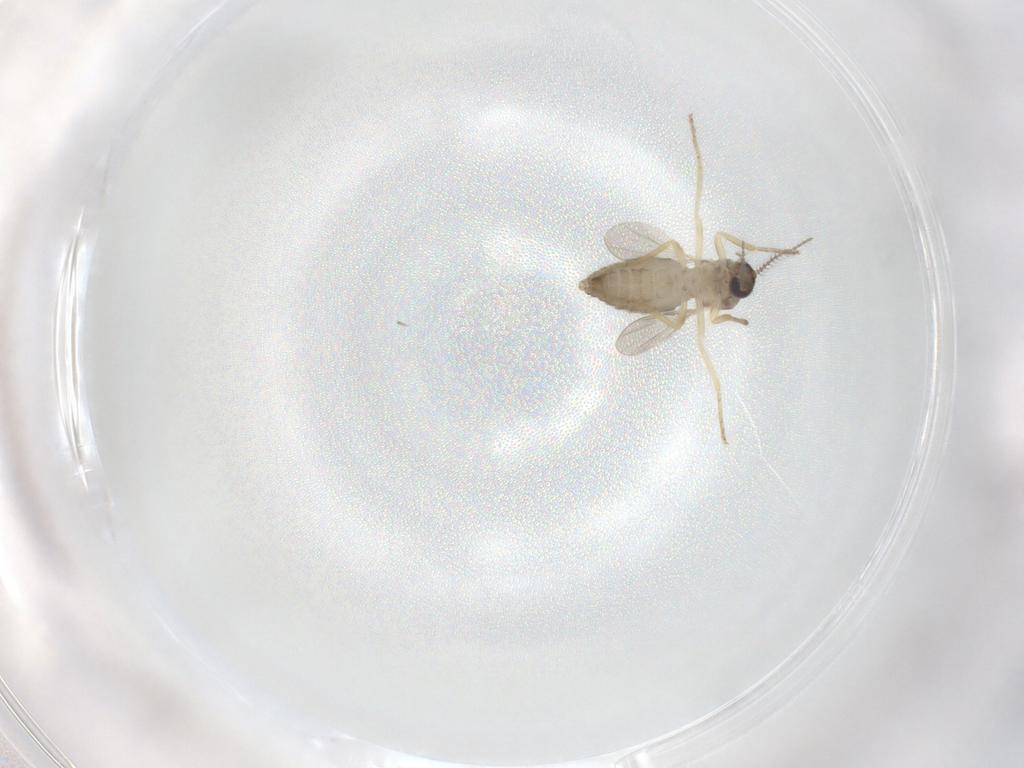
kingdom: Animalia
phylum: Arthropoda
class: Insecta
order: Diptera
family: Ceratopogonidae
